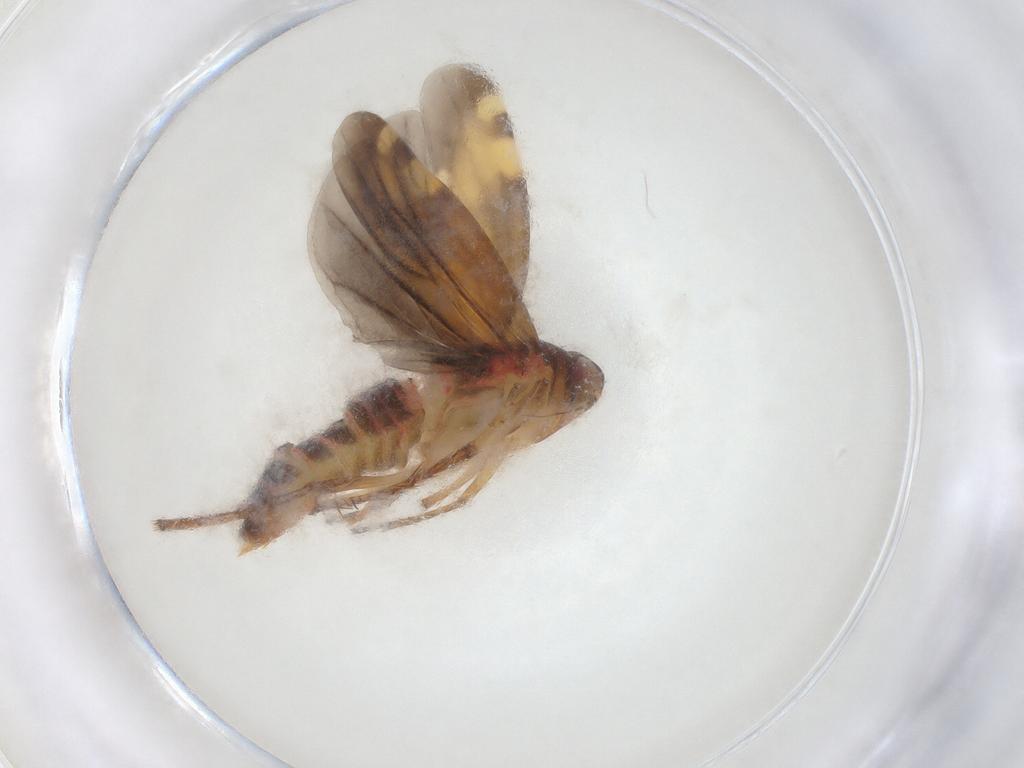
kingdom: Animalia
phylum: Arthropoda
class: Insecta
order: Hemiptera
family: Cicadellidae
